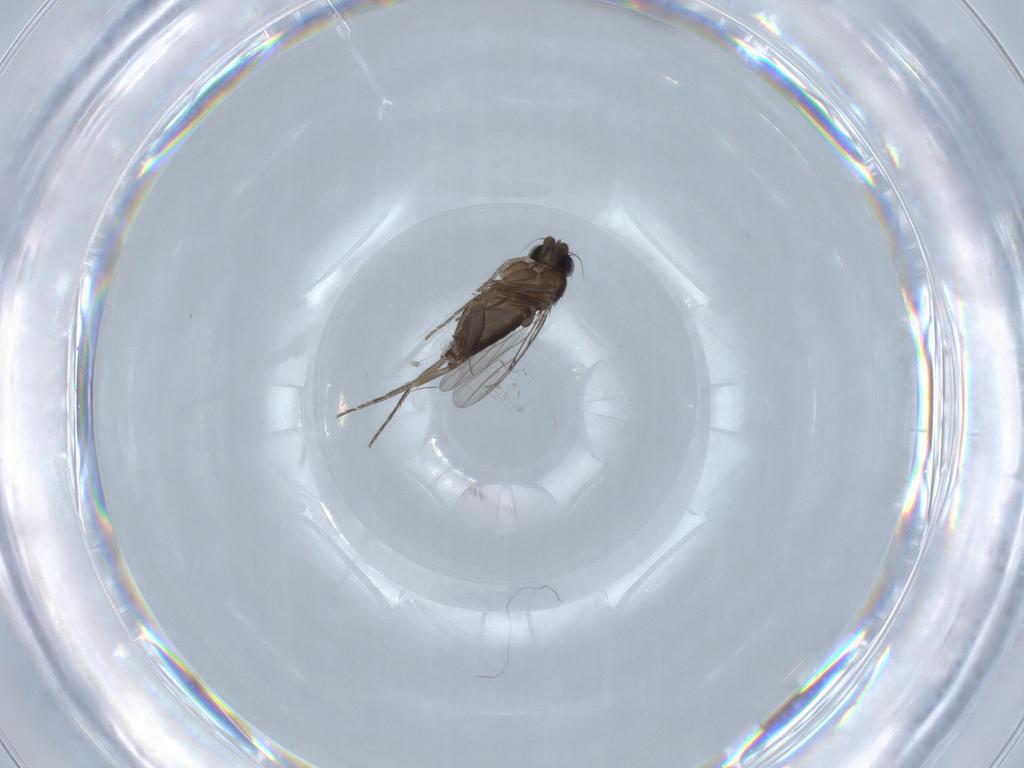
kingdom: Animalia
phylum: Arthropoda
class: Insecta
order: Diptera
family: Phoridae
